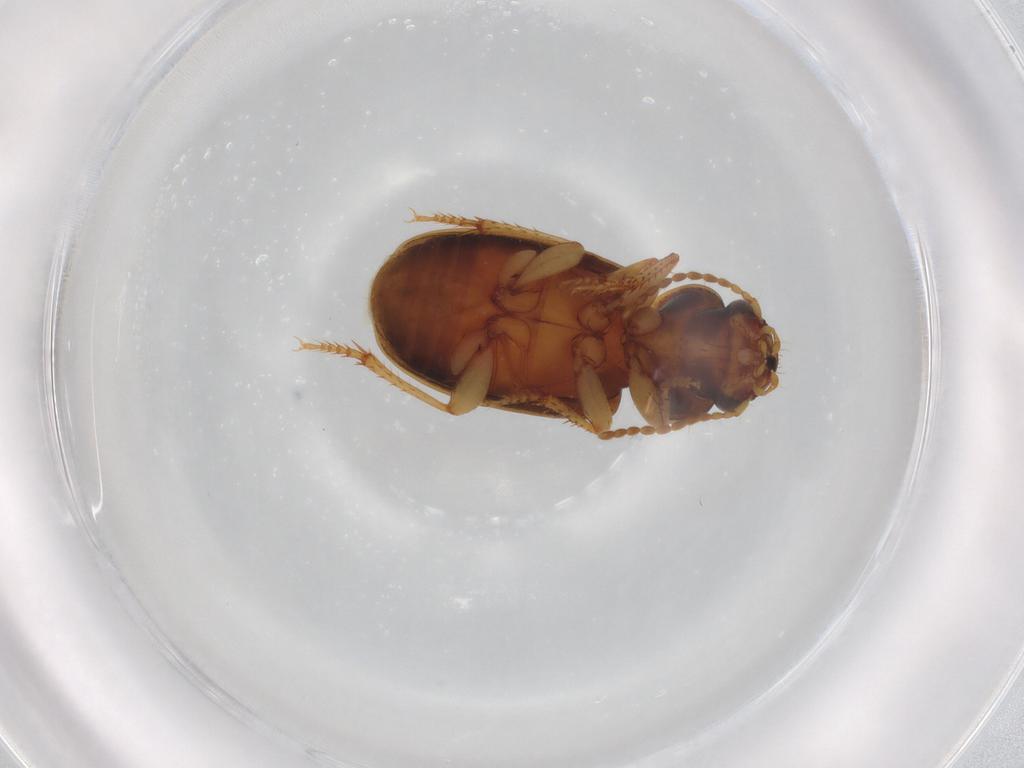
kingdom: Animalia
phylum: Arthropoda
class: Insecta
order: Coleoptera
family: Carabidae
